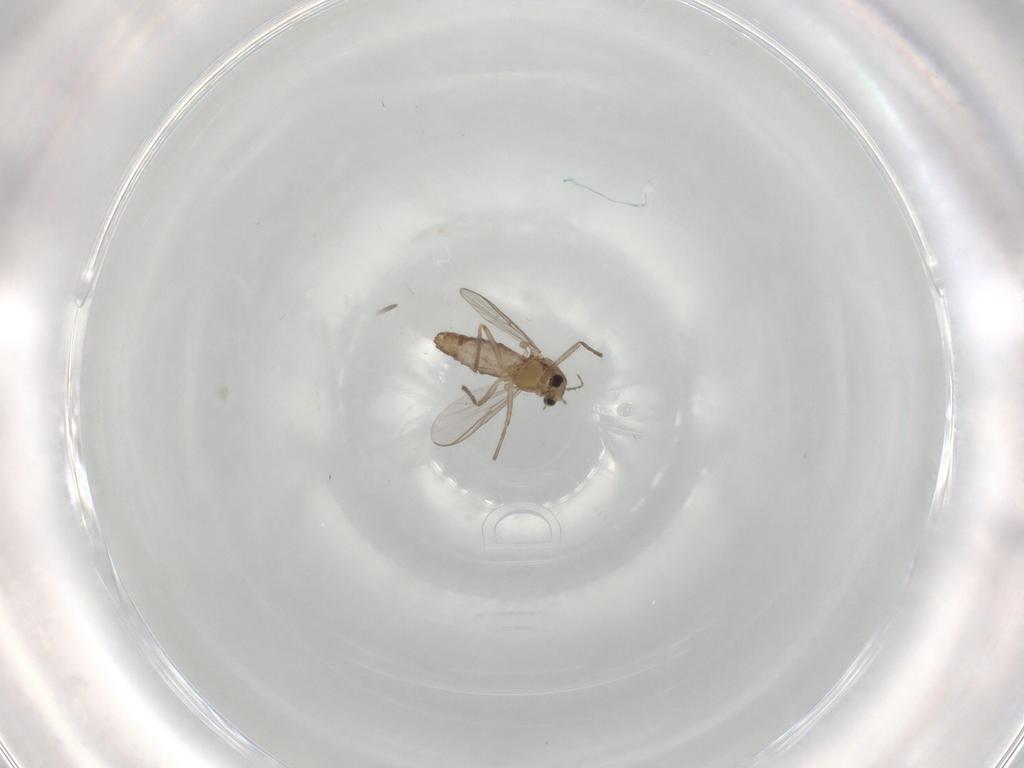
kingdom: Animalia
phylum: Arthropoda
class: Insecta
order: Diptera
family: Chironomidae
